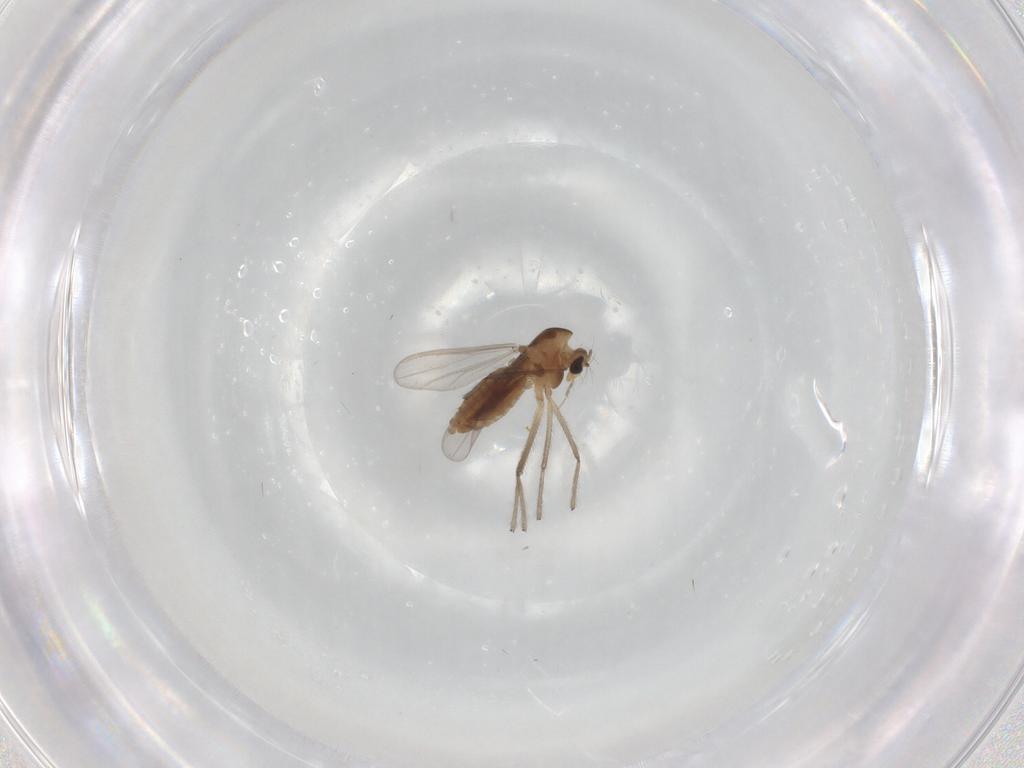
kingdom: Animalia
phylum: Arthropoda
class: Insecta
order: Diptera
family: Chironomidae
